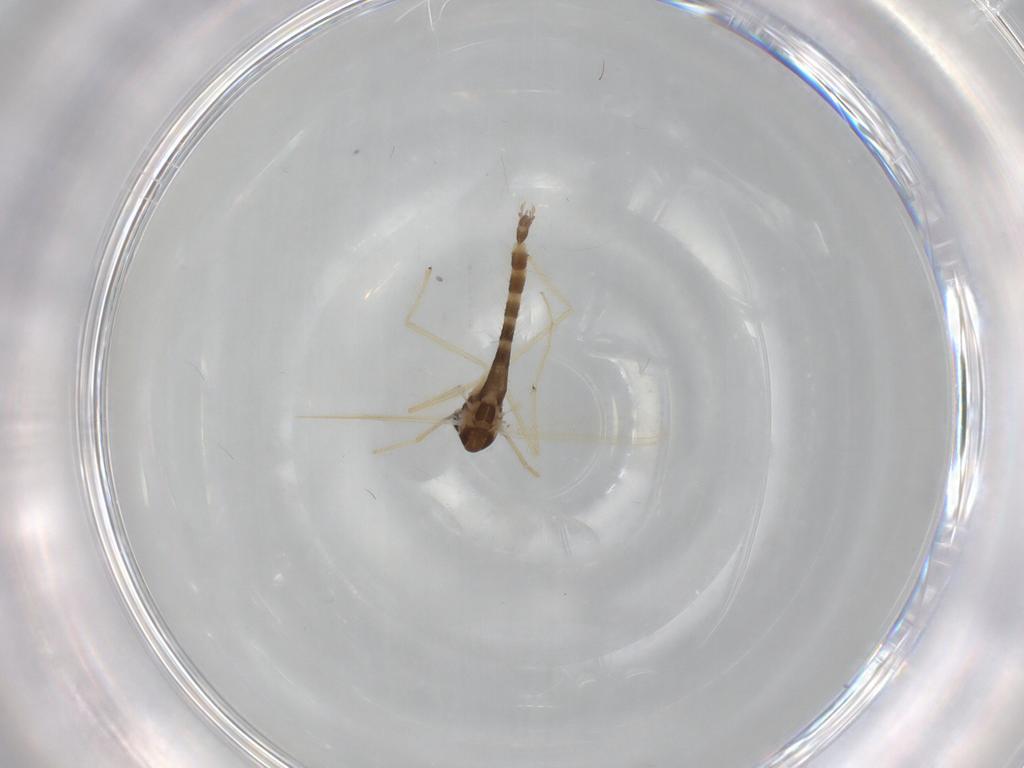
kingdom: Animalia
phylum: Arthropoda
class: Insecta
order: Diptera
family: Chironomidae
